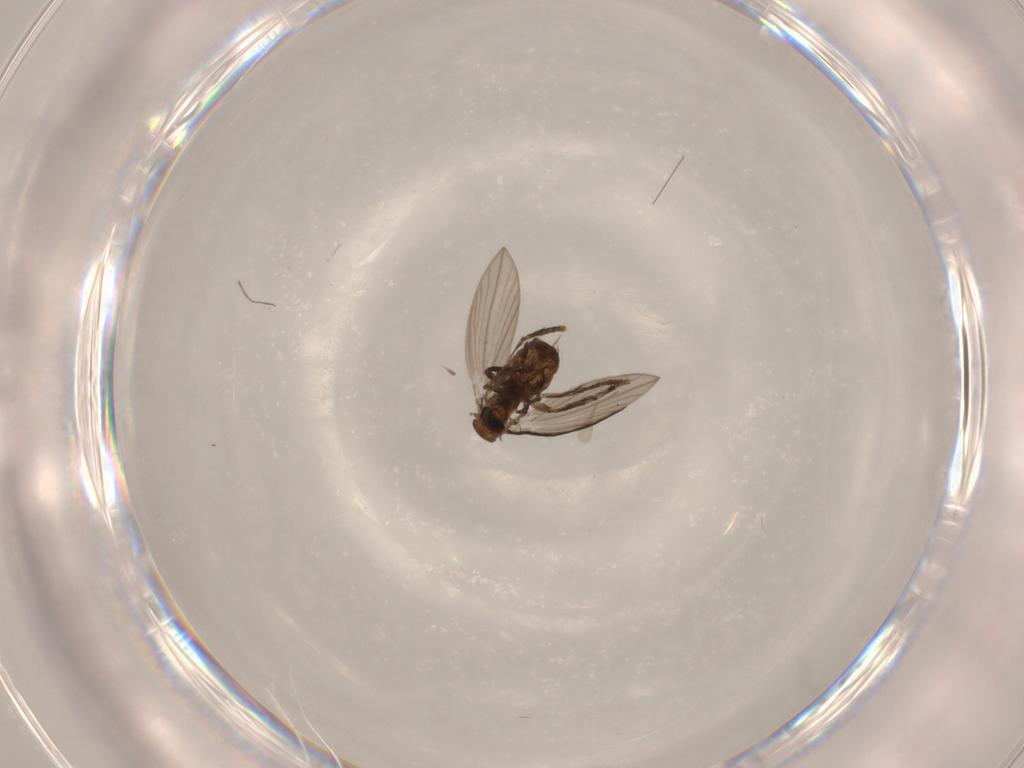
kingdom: Animalia
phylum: Arthropoda
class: Insecta
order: Diptera
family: Psychodidae
